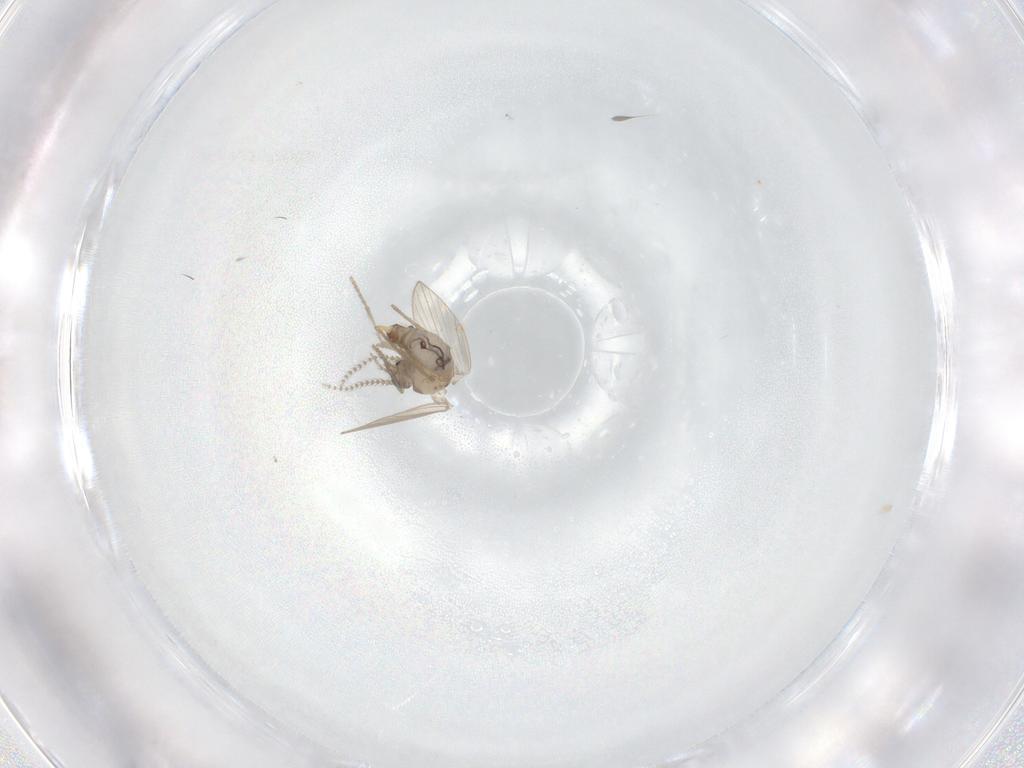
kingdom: Animalia
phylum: Arthropoda
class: Insecta
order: Diptera
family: Psychodidae
